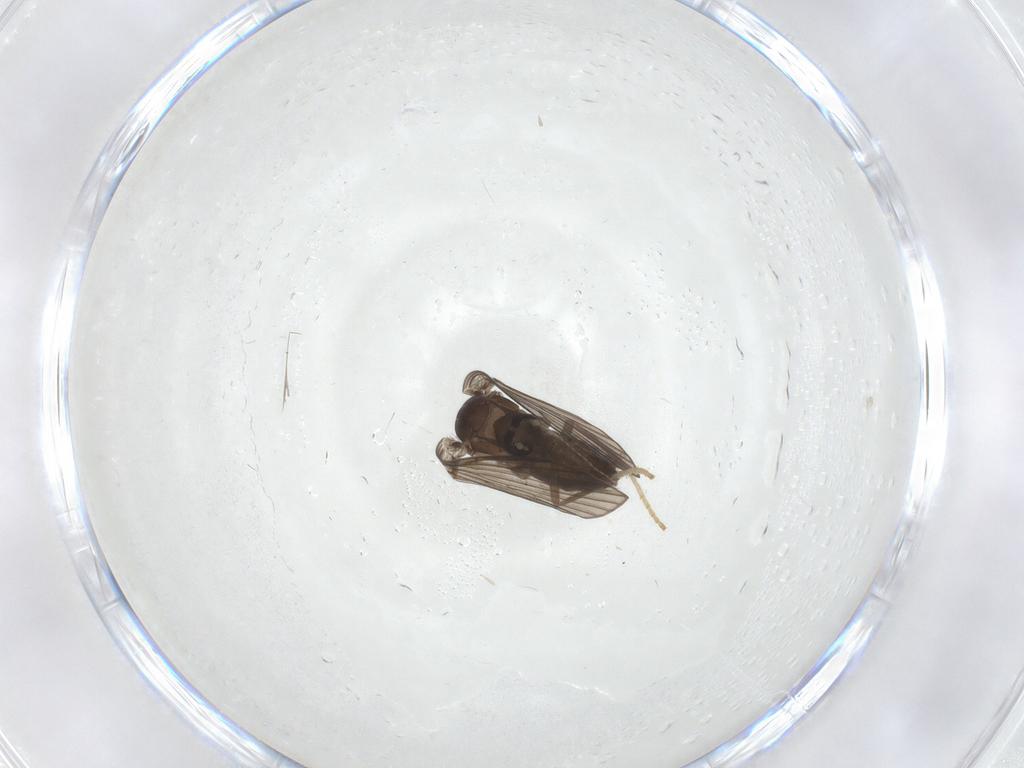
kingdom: Animalia
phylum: Arthropoda
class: Insecta
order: Diptera
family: Psychodidae
